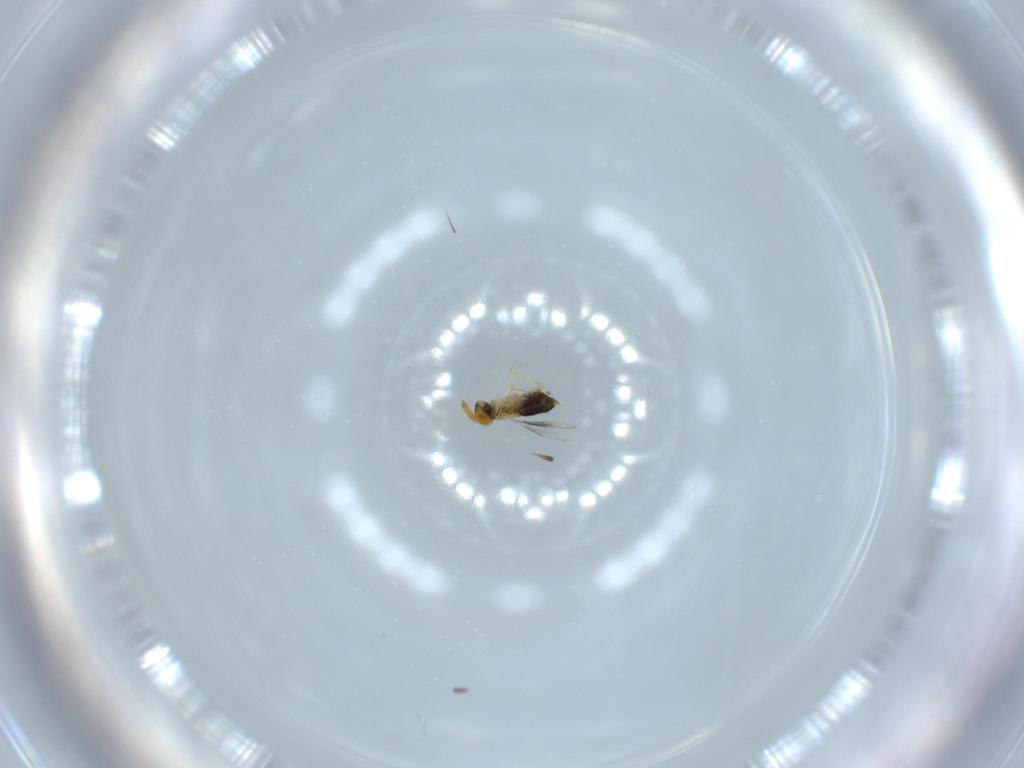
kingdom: Animalia
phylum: Arthropoda
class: Insecta
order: Hymenoptera
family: Aphelinidae
